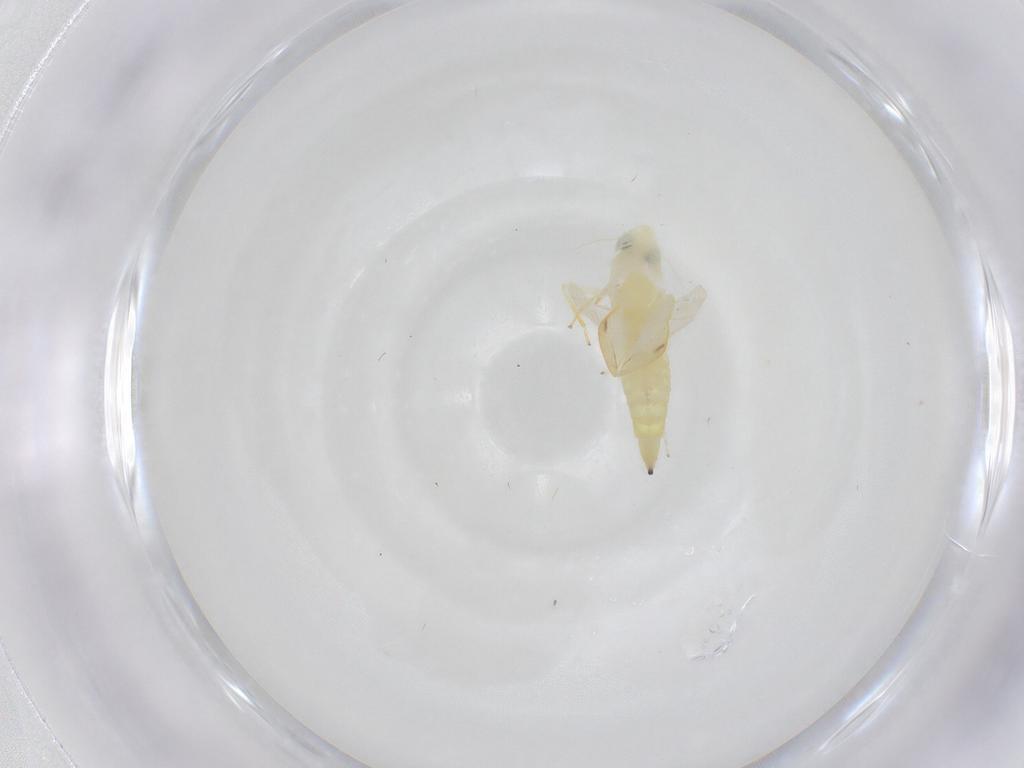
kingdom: Animalia
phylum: Arthropoda
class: Insecta
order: Hemiptera
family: Cicadellidae
